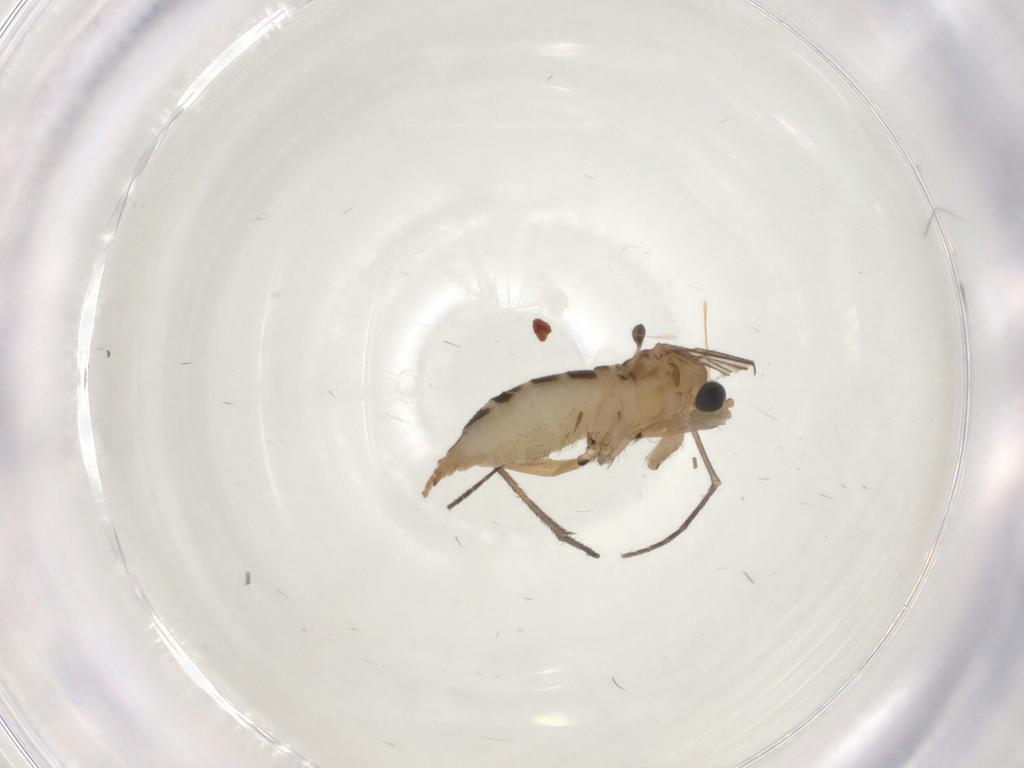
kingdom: Animalia
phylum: Arthropoda
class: Insecta
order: Diptera
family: Sciaridae
